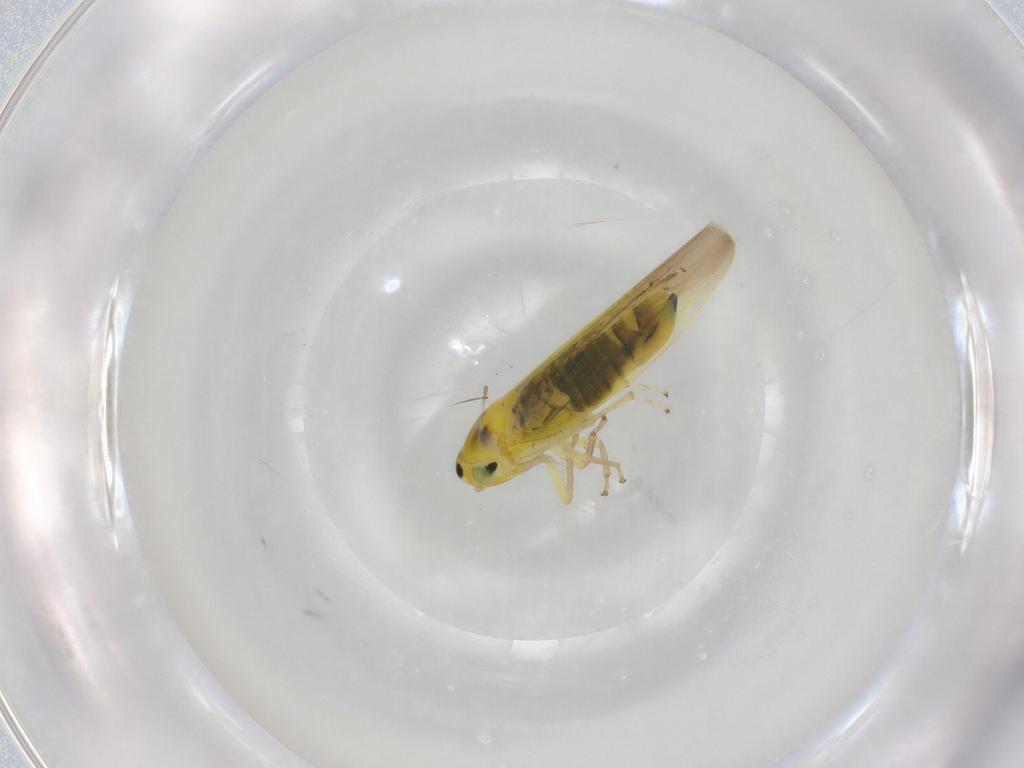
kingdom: Animalia
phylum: Arthropoda
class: Insecta
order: Hemiptera
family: Cicadellidae
